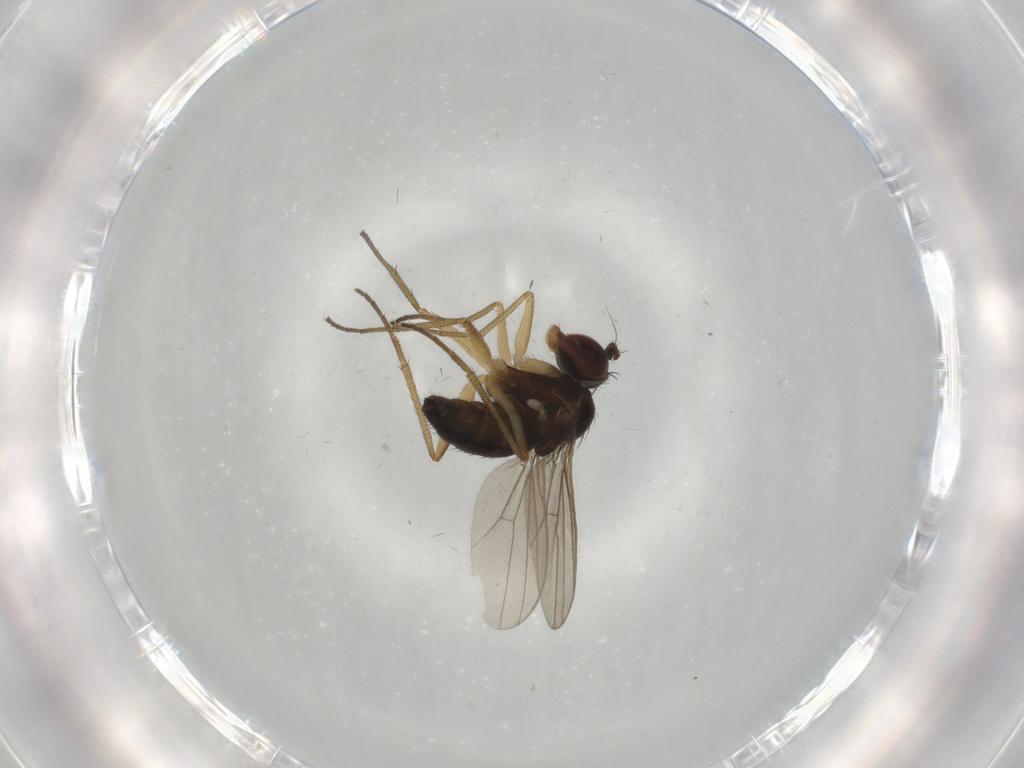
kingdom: Animalia
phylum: Arthropoda
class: Insecta
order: Diptera
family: Dolichopodidae
